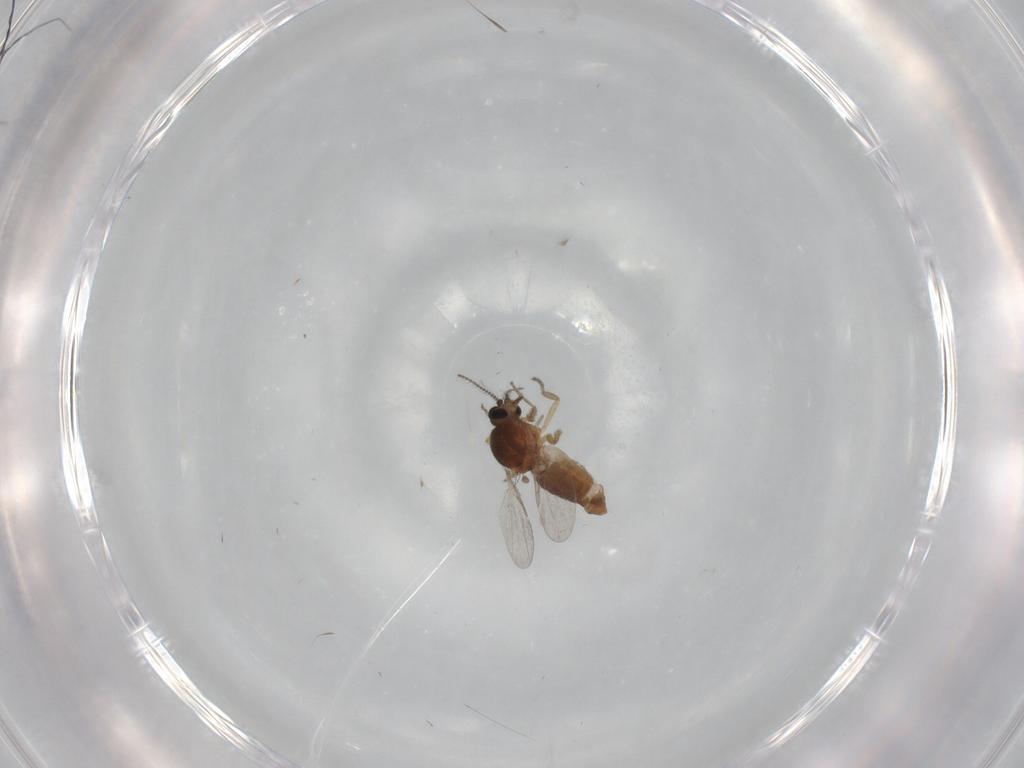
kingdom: Animalia
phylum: Arthropoda
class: Insecta
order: Diptera
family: Ceratopogonidae
